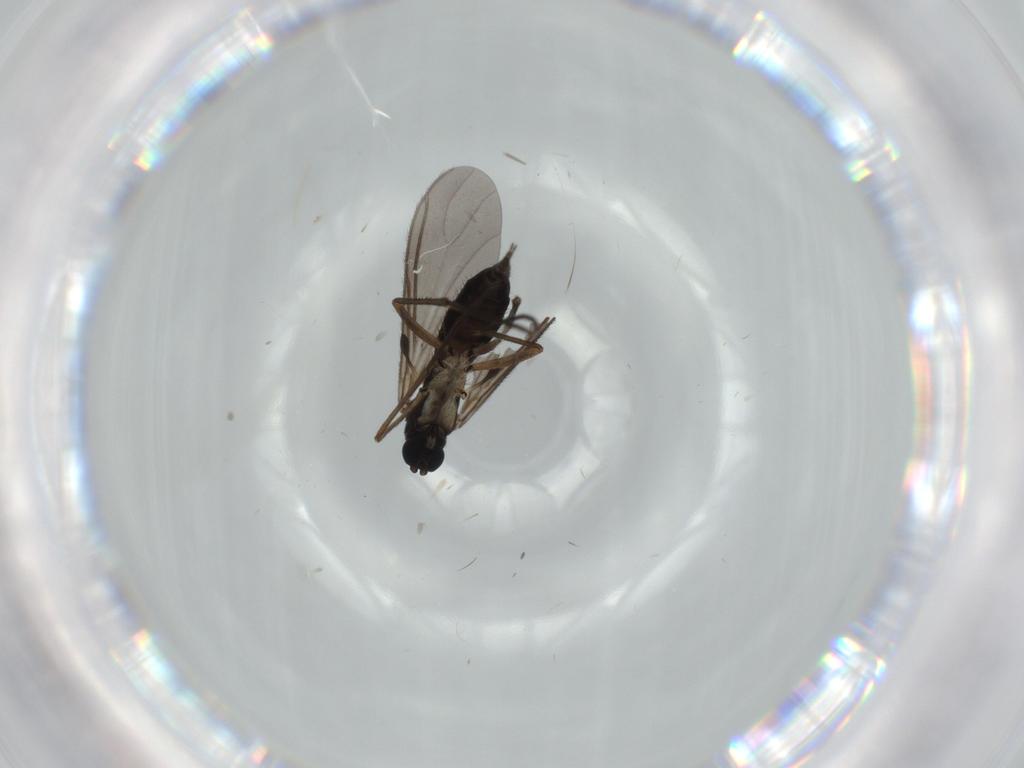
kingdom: Animalia
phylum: Arthropoda
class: Insecta
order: Diptera
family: Sciaridae
